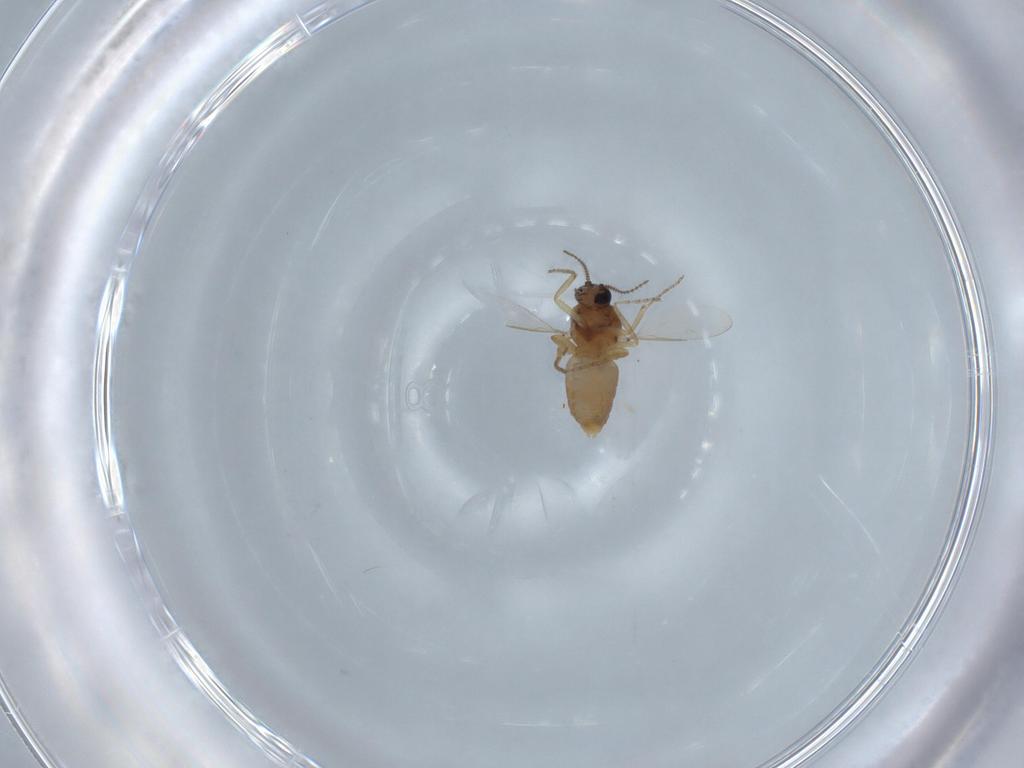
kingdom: Animalia
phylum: Arthropoda
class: Insecta
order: Diptera
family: Ceratopogonidae
